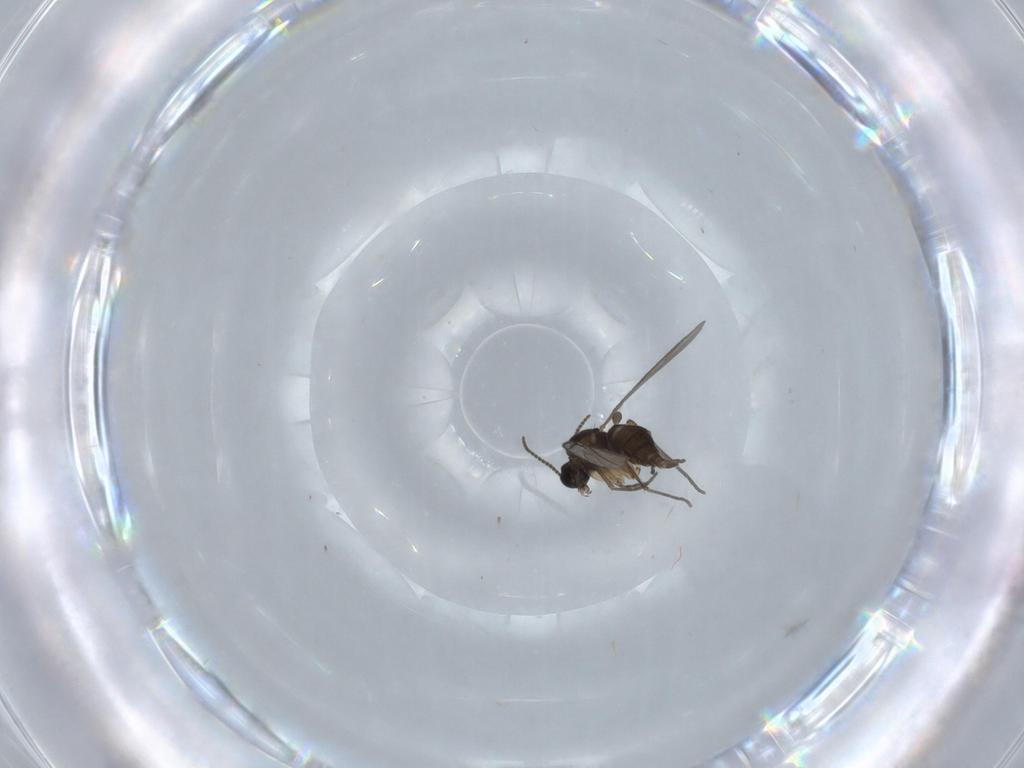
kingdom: Animalia
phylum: Arthropoda
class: Insecta
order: Diptera
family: Sciaridae
